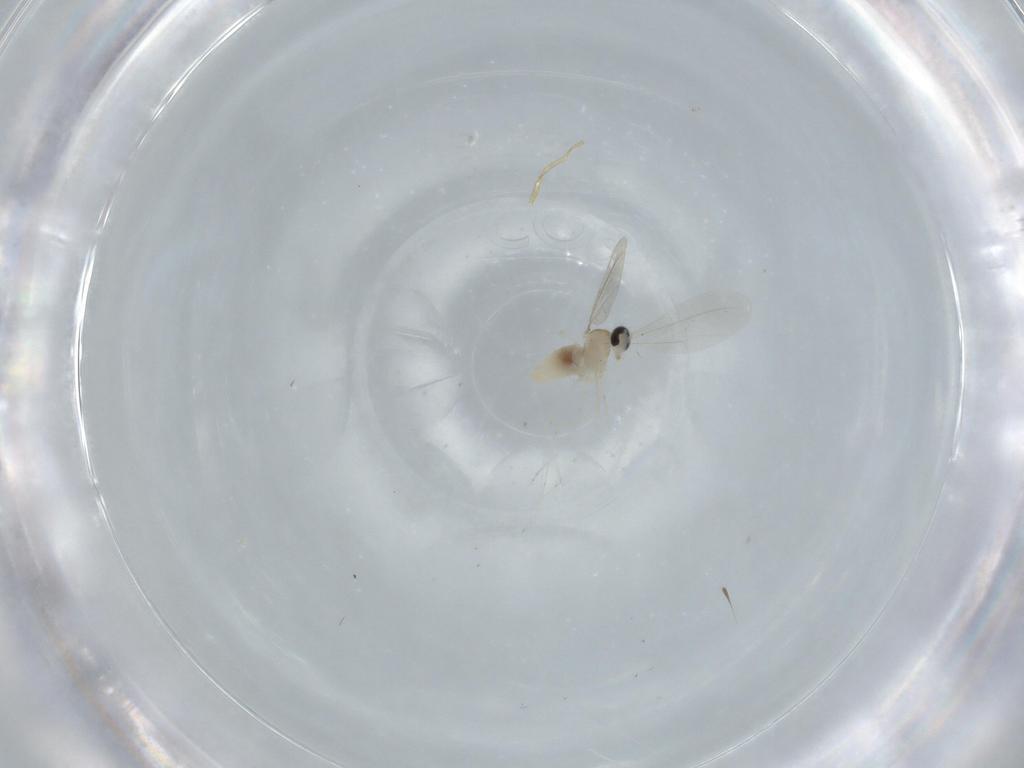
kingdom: Animalia
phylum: Arthropoda
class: Insecta
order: Diptera
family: Cecidomyiidae
